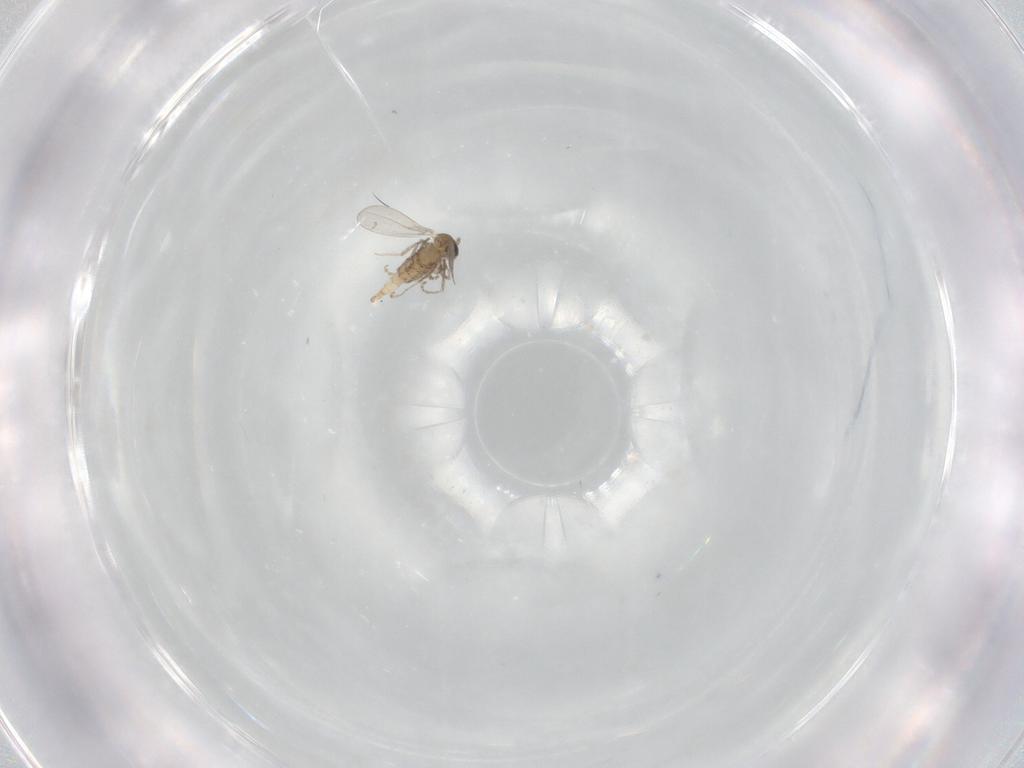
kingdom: Animalia
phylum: Arthropoda
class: Insecta
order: Diptera
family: Cecidomyiidae
